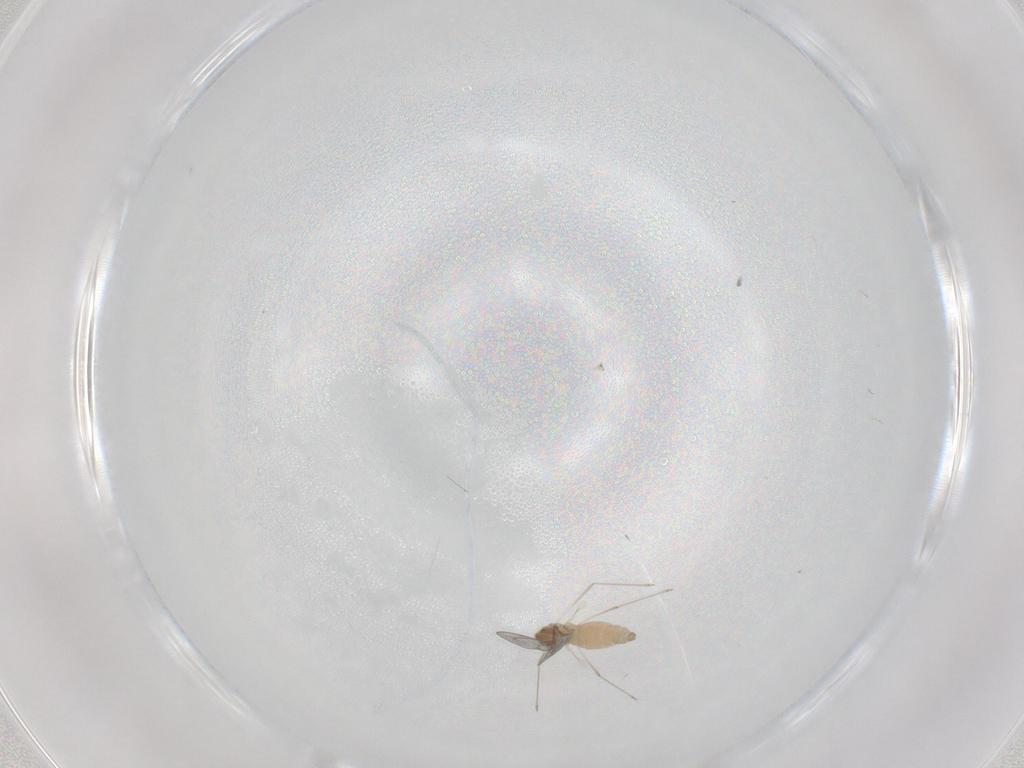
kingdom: Animalia
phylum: Arthropoda
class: Insecta
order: Diptera
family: Cecidomyiidae
